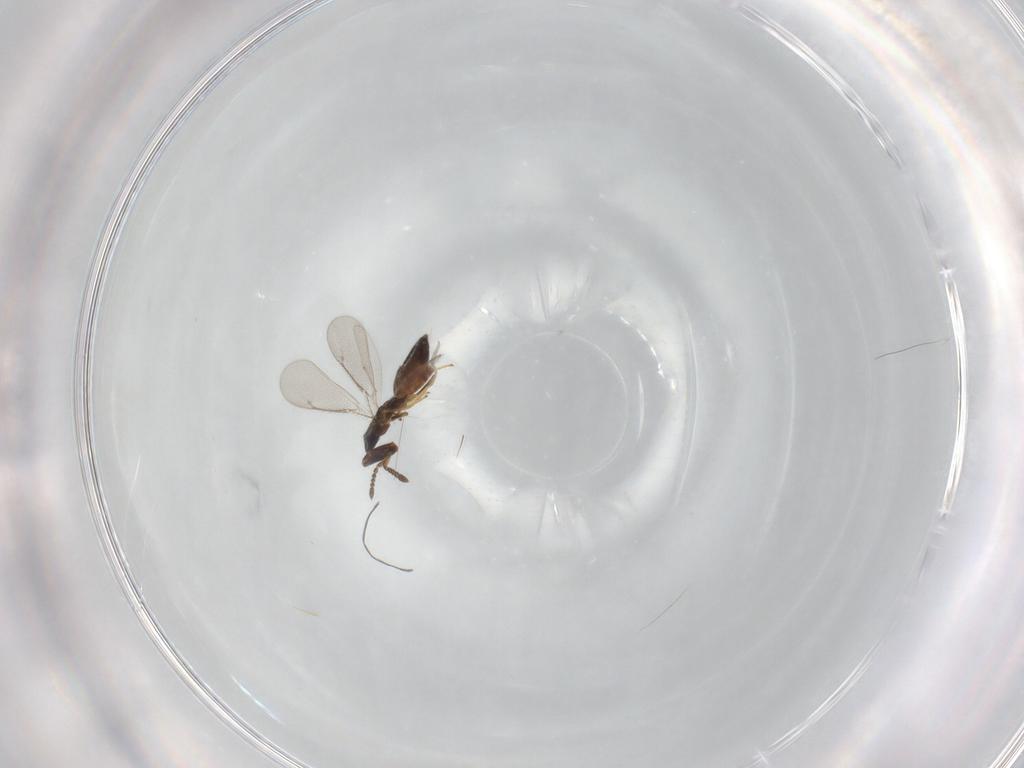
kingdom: Animalia
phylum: Arthropoda
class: Insecta
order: Hymenoptera
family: Eulophidae
